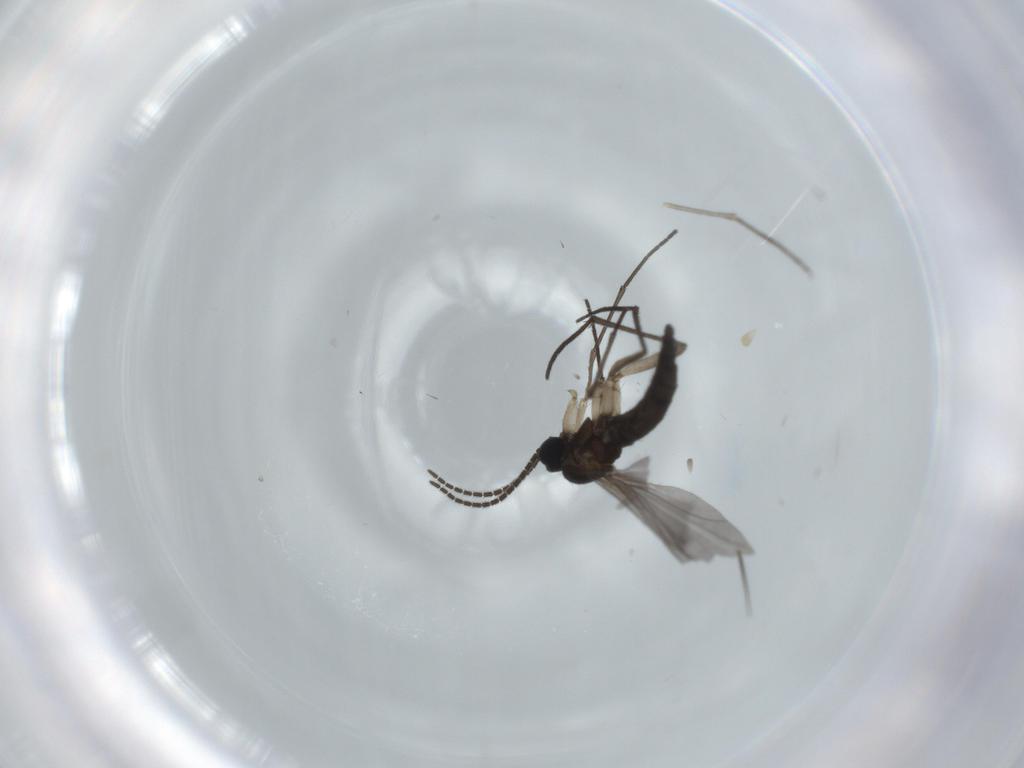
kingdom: Animalia
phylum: Arthropoda
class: Insecta
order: Diptera
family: Sciaridae
